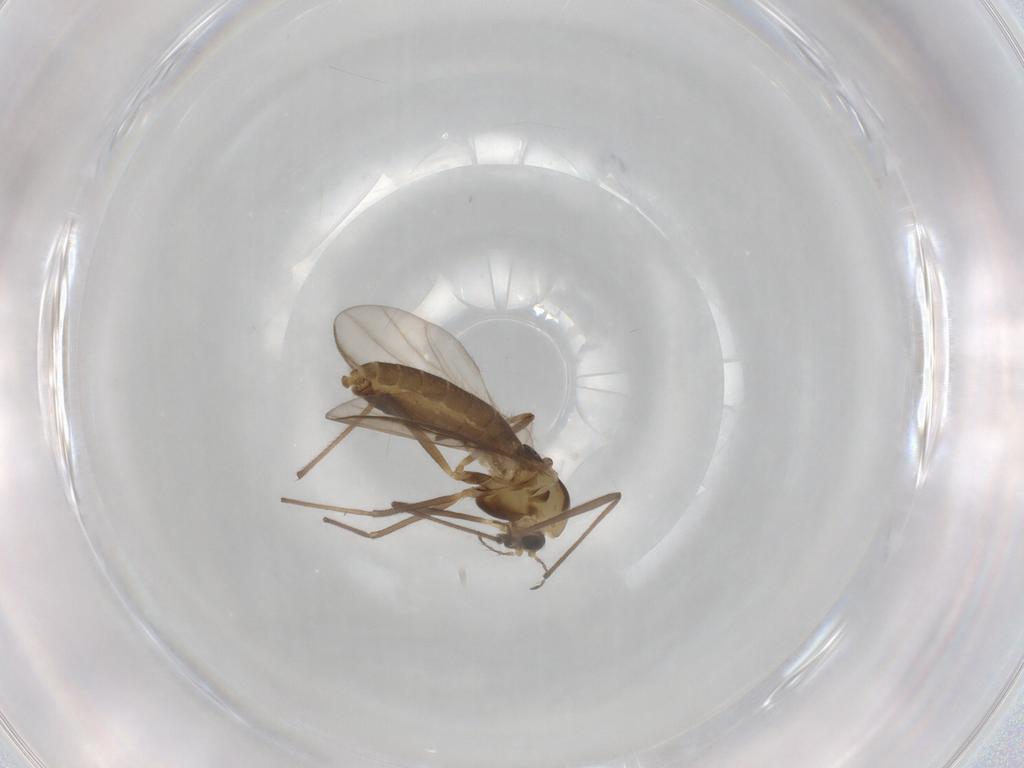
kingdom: Animalia
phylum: Arthropoda
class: Insecta
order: Diptera
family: Chironomidae
